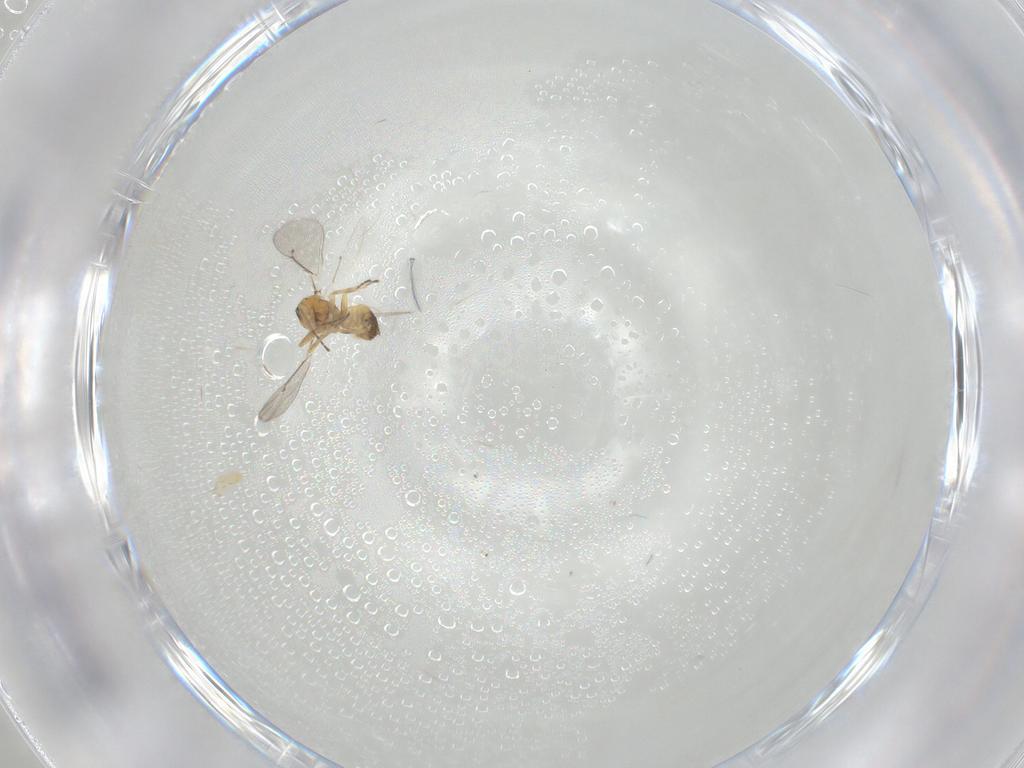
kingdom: Animalia
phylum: Arthropoda
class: Insecta
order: Hymenoptera
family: Eulophidae
